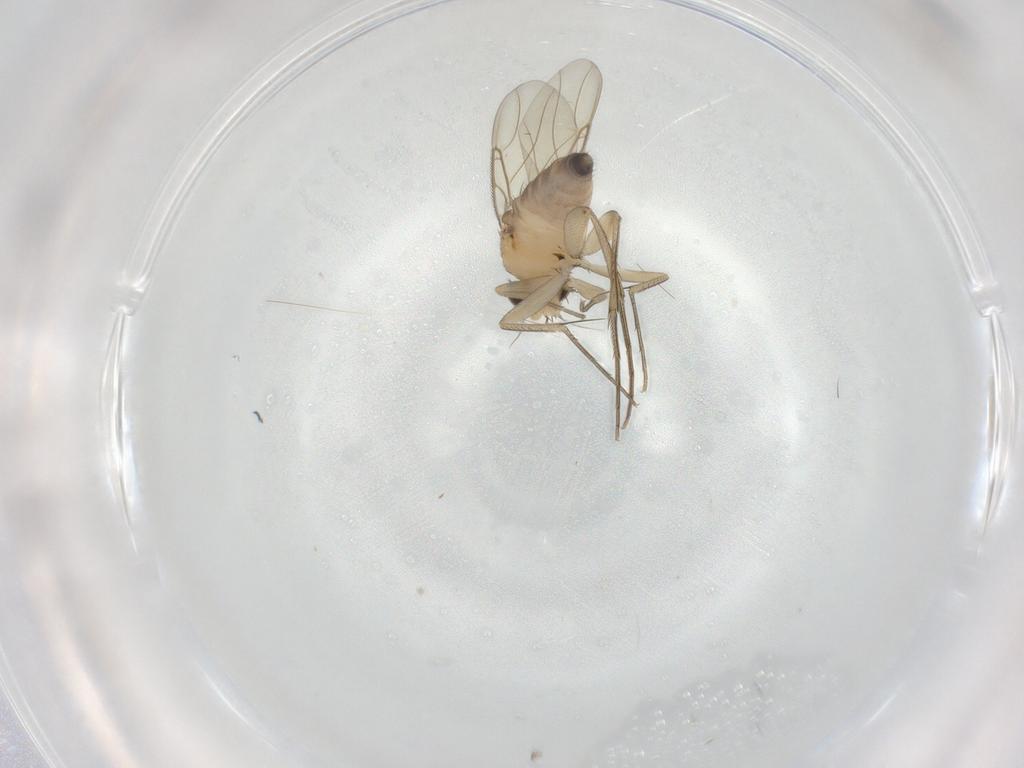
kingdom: Animalia
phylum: Arthropoda
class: Insecta
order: Diptera
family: Phoridae
